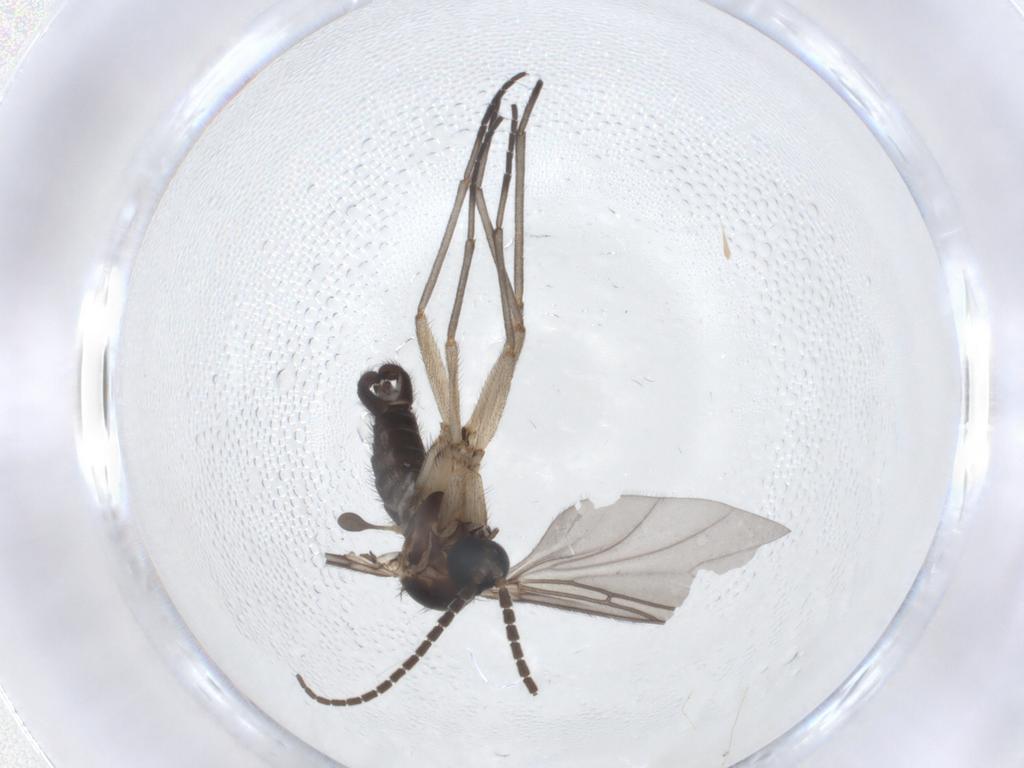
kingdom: Animalia
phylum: Arthropoda
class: Insecta
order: Diptera
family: Sciaridae
